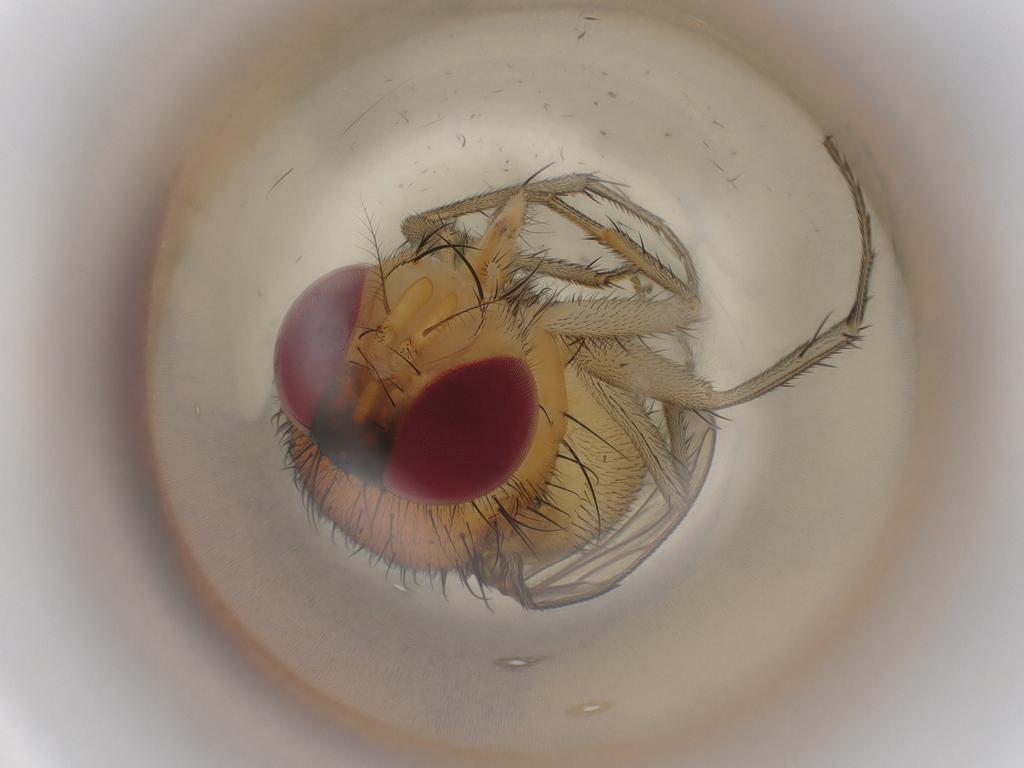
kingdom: Animalia
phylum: Arthropoda
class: Insecta
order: Diptera
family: Calliphoridae
